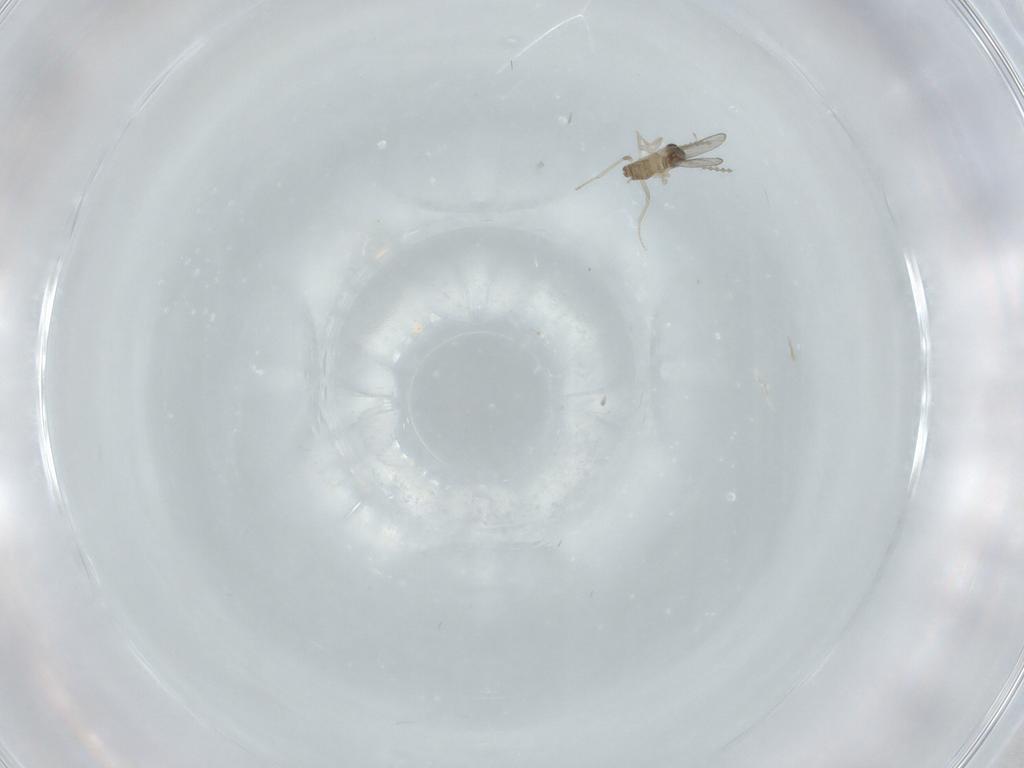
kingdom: Animalia
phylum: Arthropoda
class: Insecta
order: Diptera
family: Cecidomyiidae
